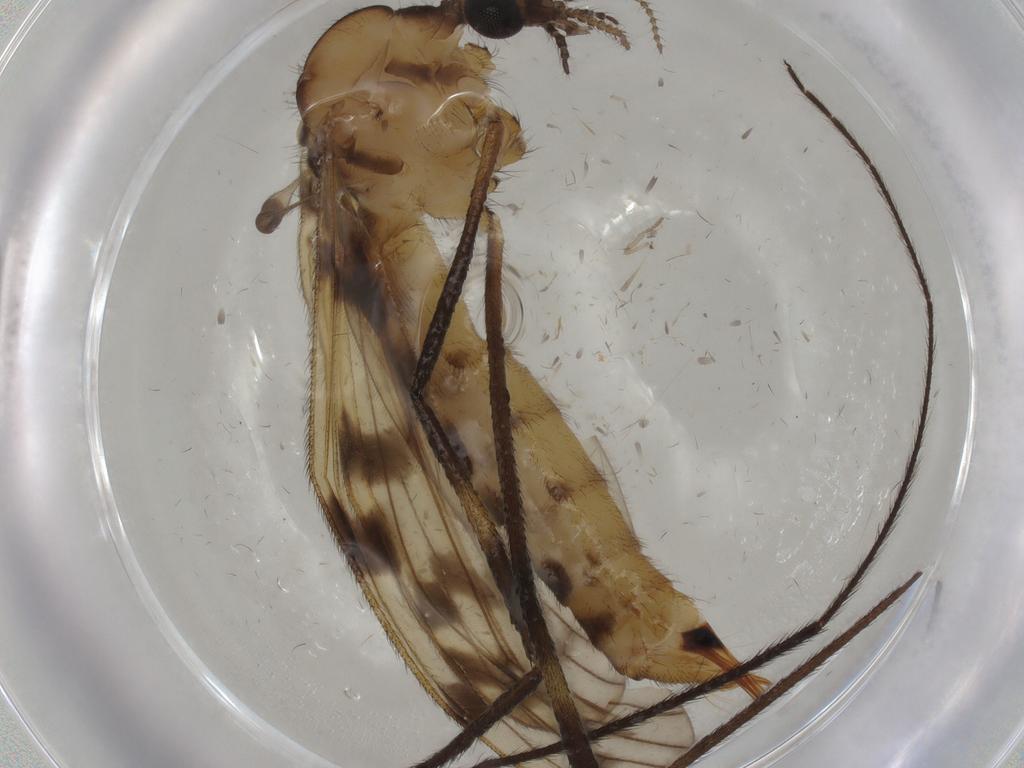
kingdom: Animalia
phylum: Arthropoda
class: Insecta
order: Diptera
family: Sciaridae
